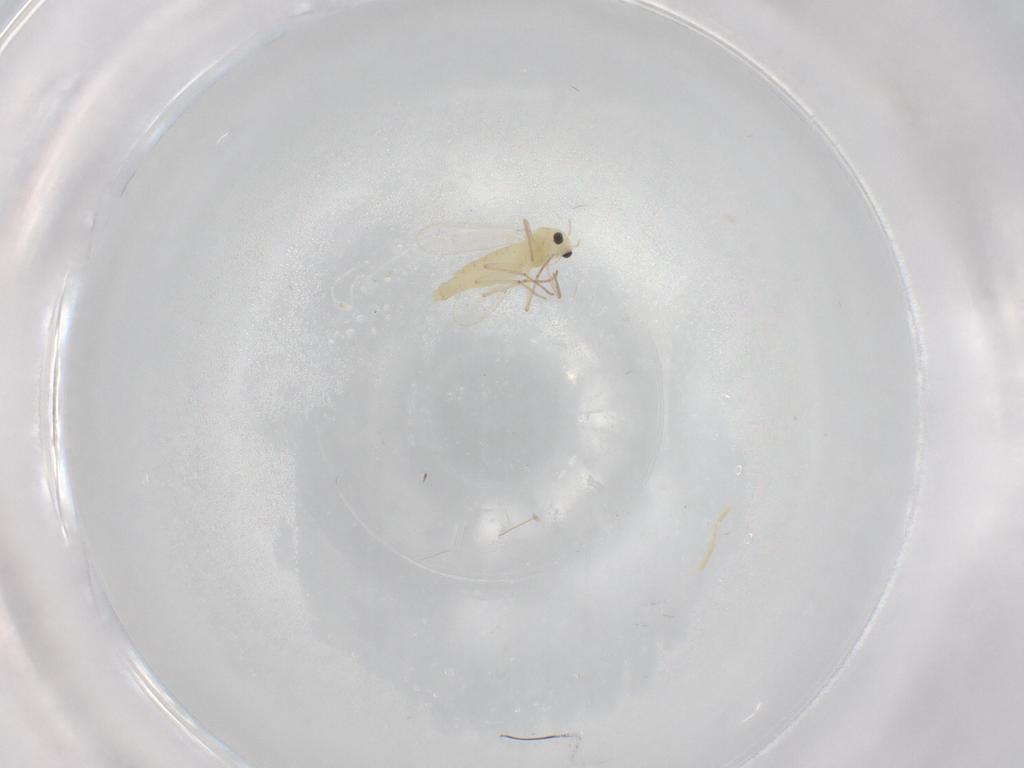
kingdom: Animalia
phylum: Arthropoda
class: Insecta
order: Diptera
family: Chironomidae
